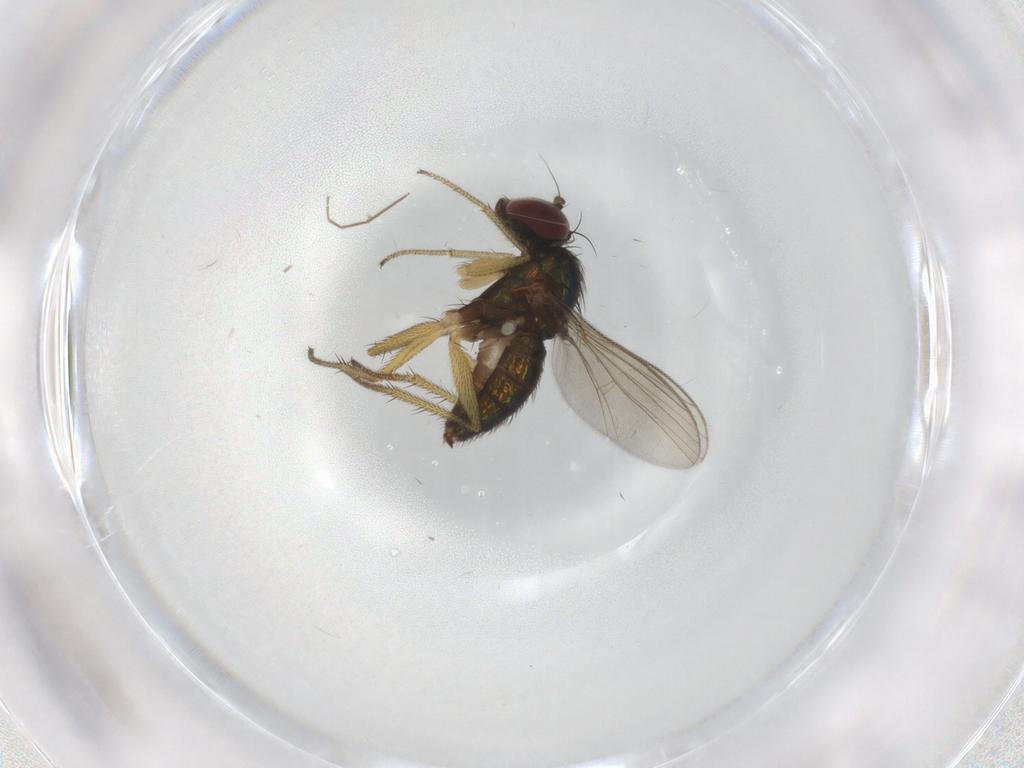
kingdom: Animalia
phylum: Arthropoda
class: Insecta
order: Diptera
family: Chironomidae
